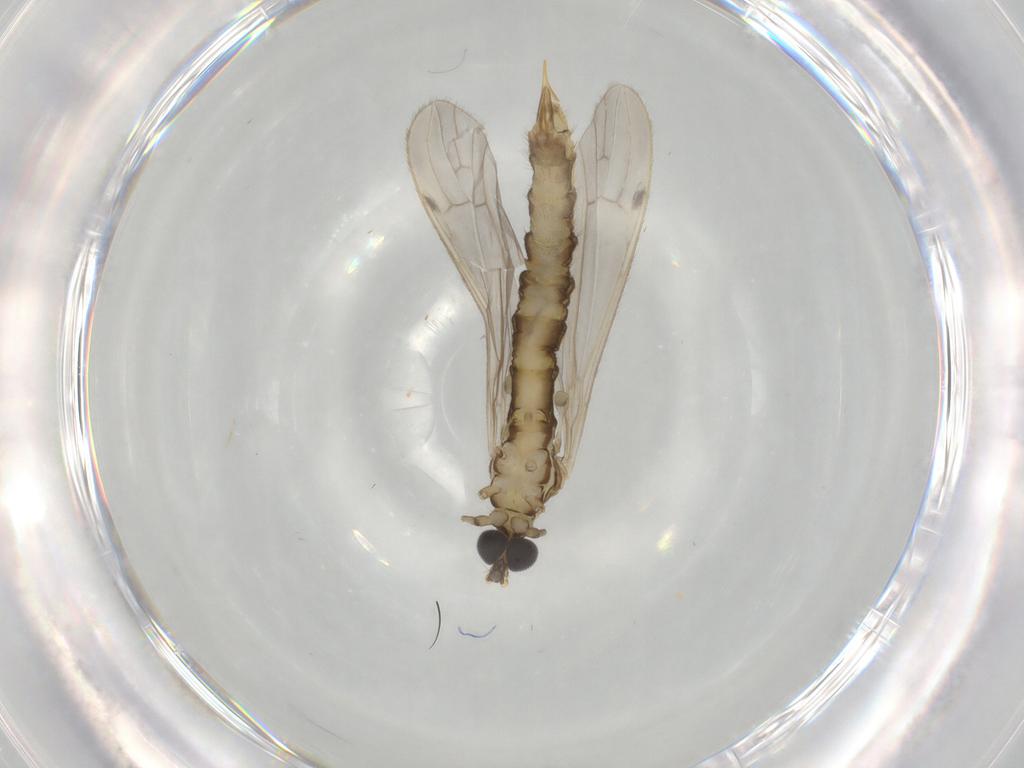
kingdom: Animalia
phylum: Arthropoda
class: Insecta
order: Diptera
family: Limoniidae
